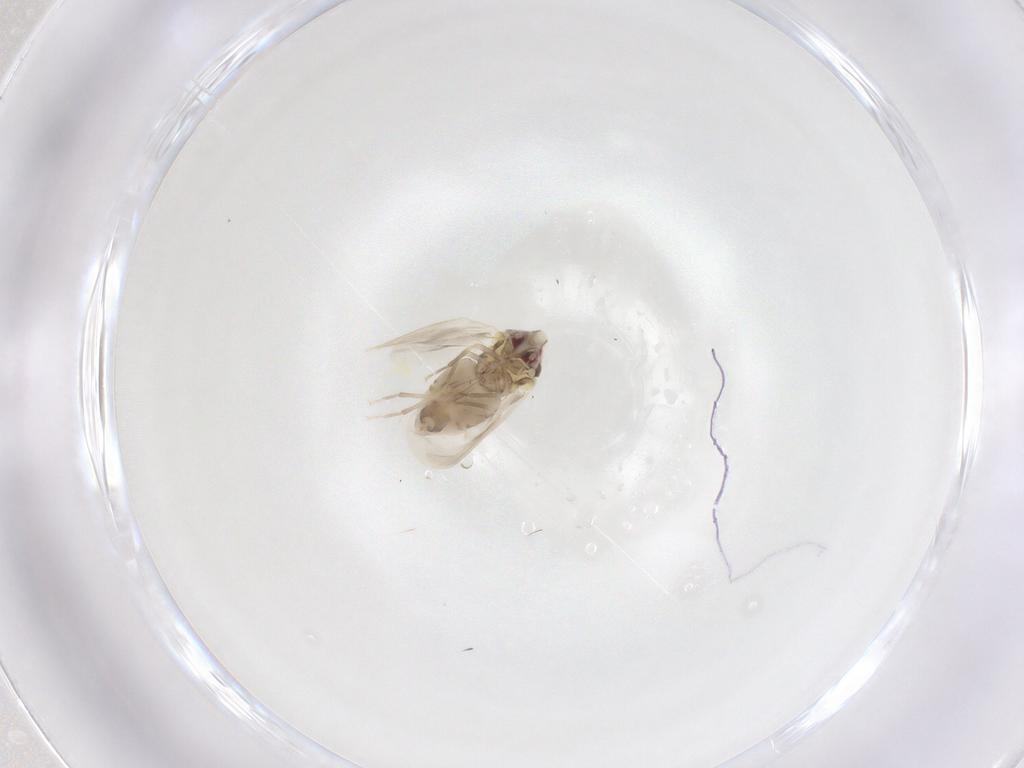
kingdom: Animalia
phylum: Arthropoda
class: Insecta
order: Hemiptera
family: Aleyrodidae
